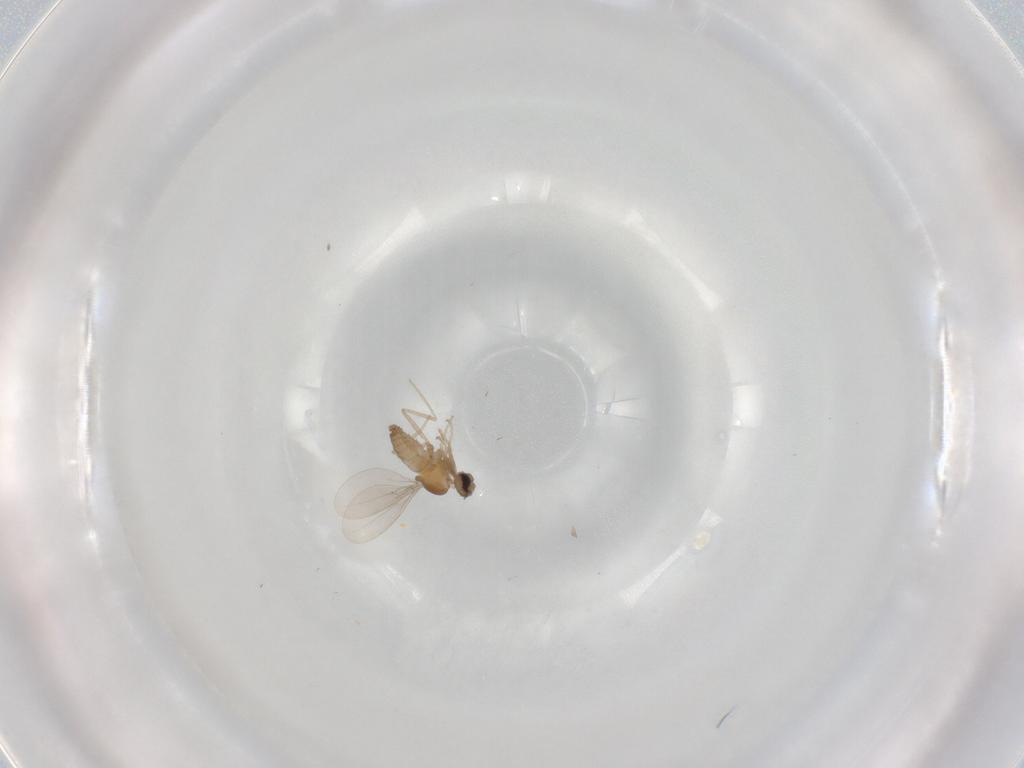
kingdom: Animalia
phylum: Arthropoda
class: Insecta
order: Diptera
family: Cecidomyiidae
